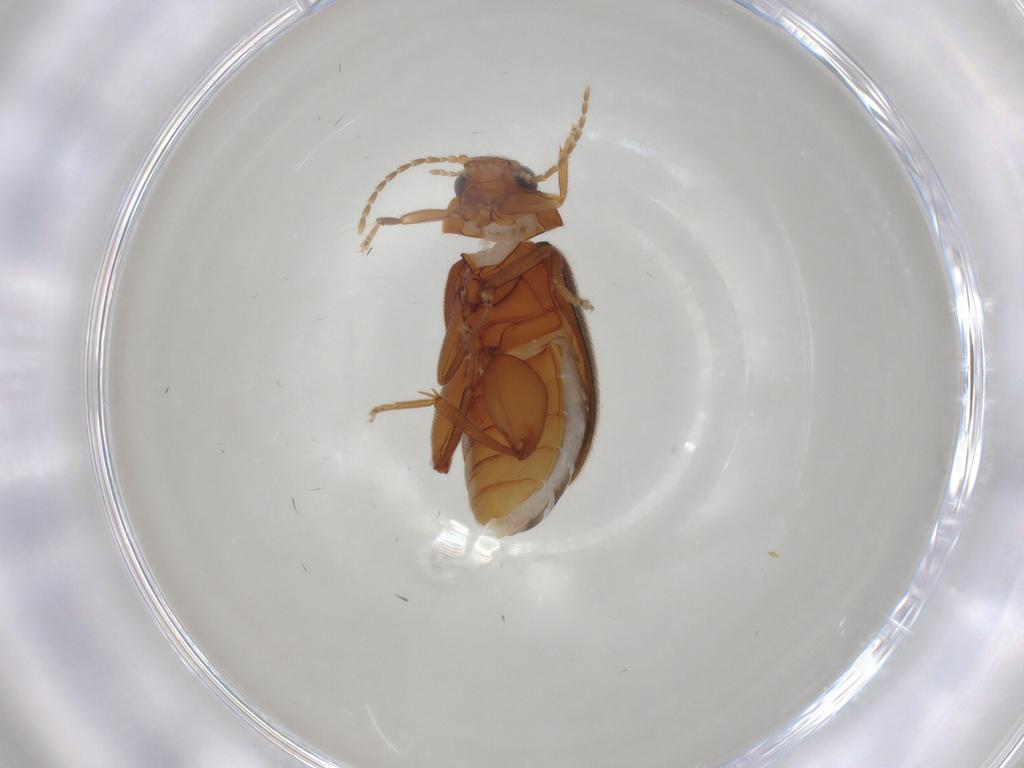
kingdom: Animalia
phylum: Arthropoda
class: Insecta
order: Coleoptera
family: Scirtidae
